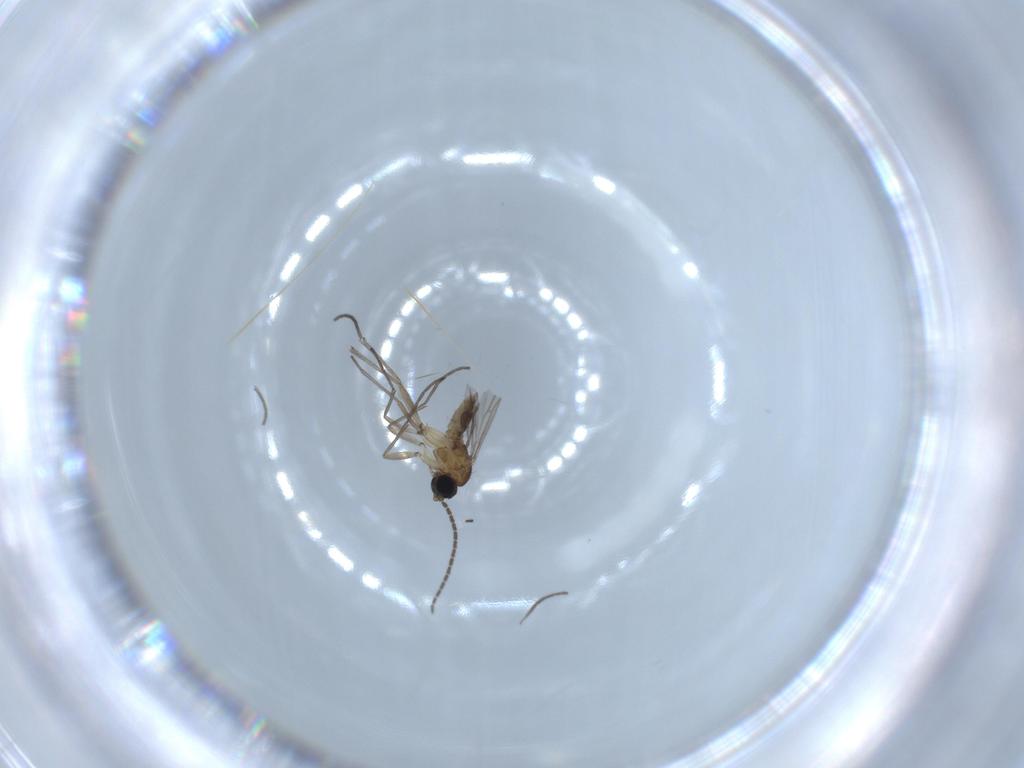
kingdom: Animalia
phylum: Arthropoda
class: Insecta
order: Diptera
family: Sciaridae
